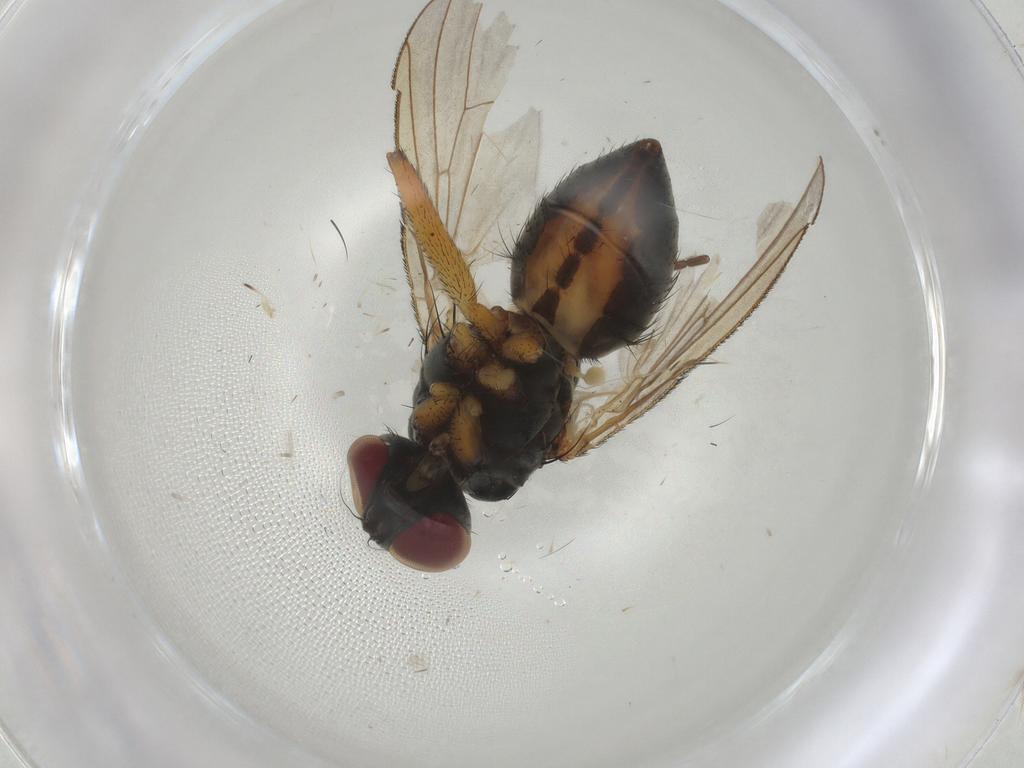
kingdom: Animalia
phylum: Arthropoda
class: Insecta
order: Diptera
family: Muscidae
